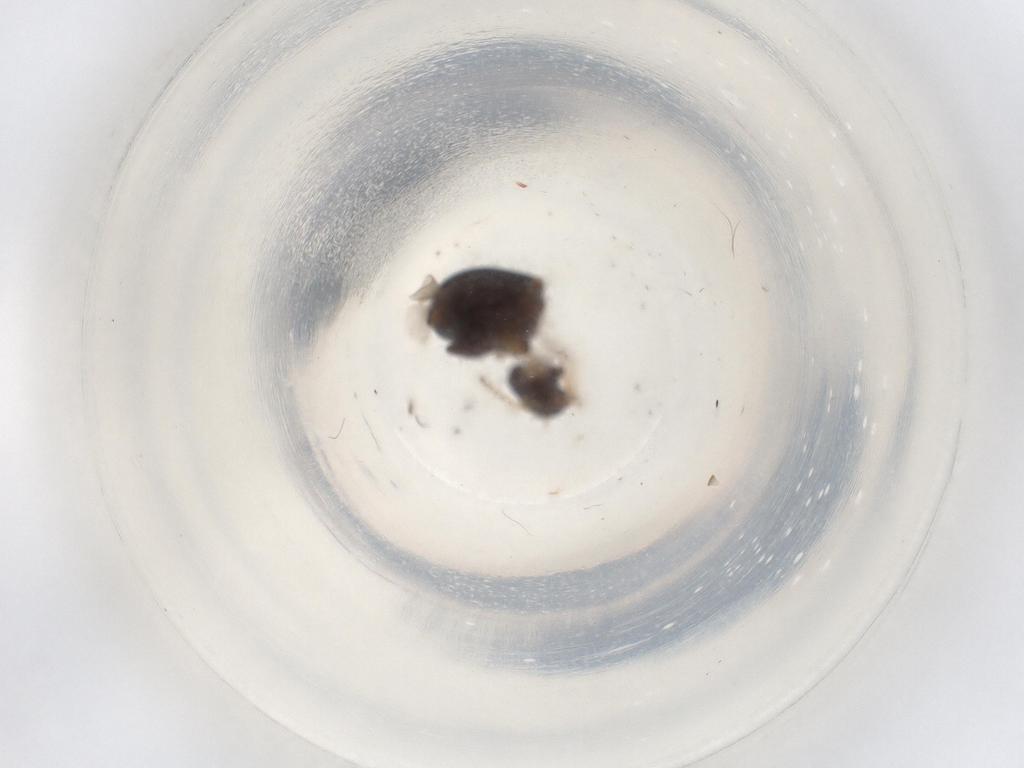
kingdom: Animalia
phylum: Arthropoda
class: Insecta
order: Coleoptera
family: Chrysomelidae
